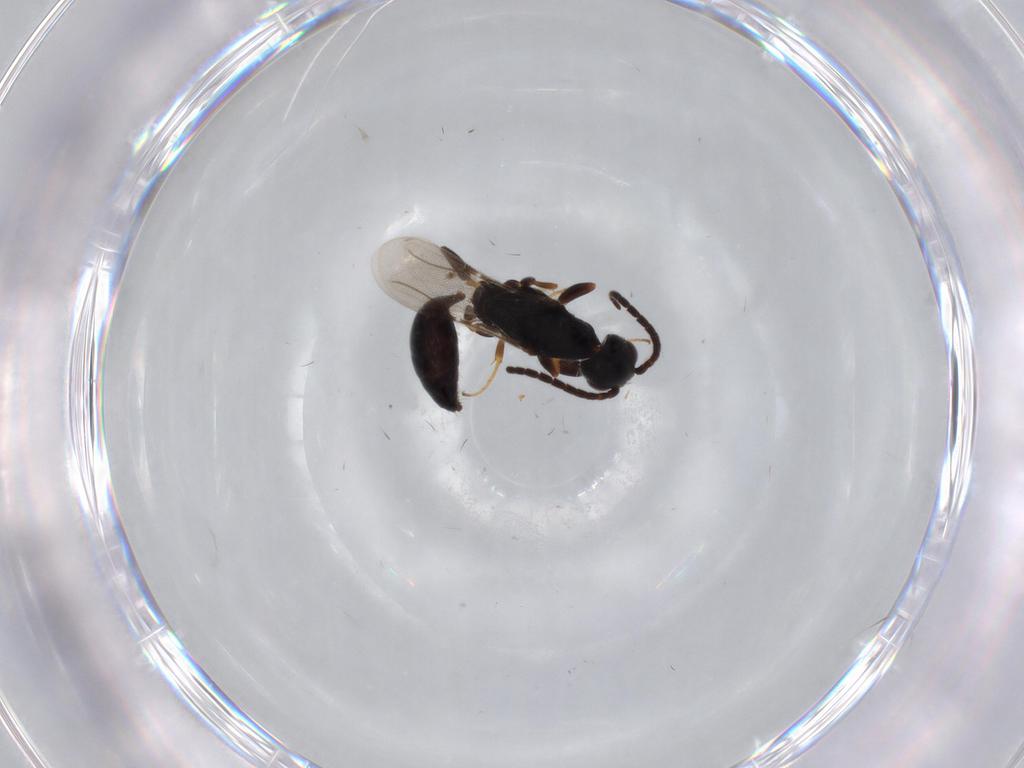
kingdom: Animalia
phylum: Arthropoda
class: Insecta
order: Hymenoptera
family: Bethylidae
